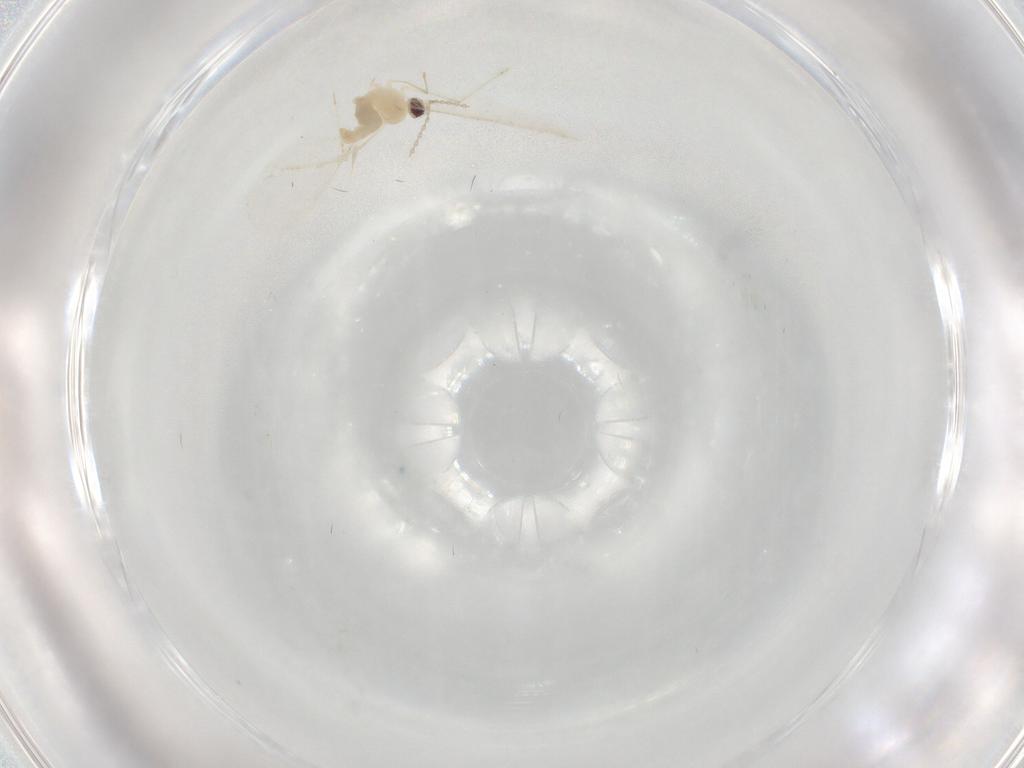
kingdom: Animalia
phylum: Arthropoda
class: Insecta
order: Diptera
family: Cecidomyiidae
